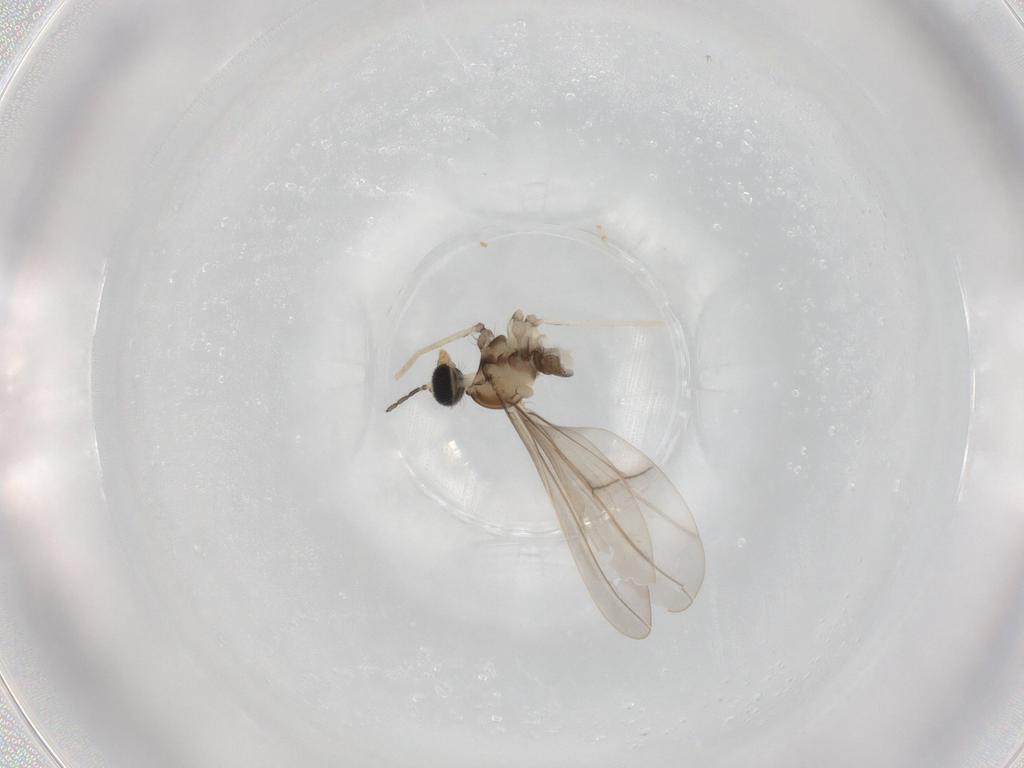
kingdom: Animalia
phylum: Arthropoda
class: Insecta
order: Diptera
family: Cecidomyiidae
